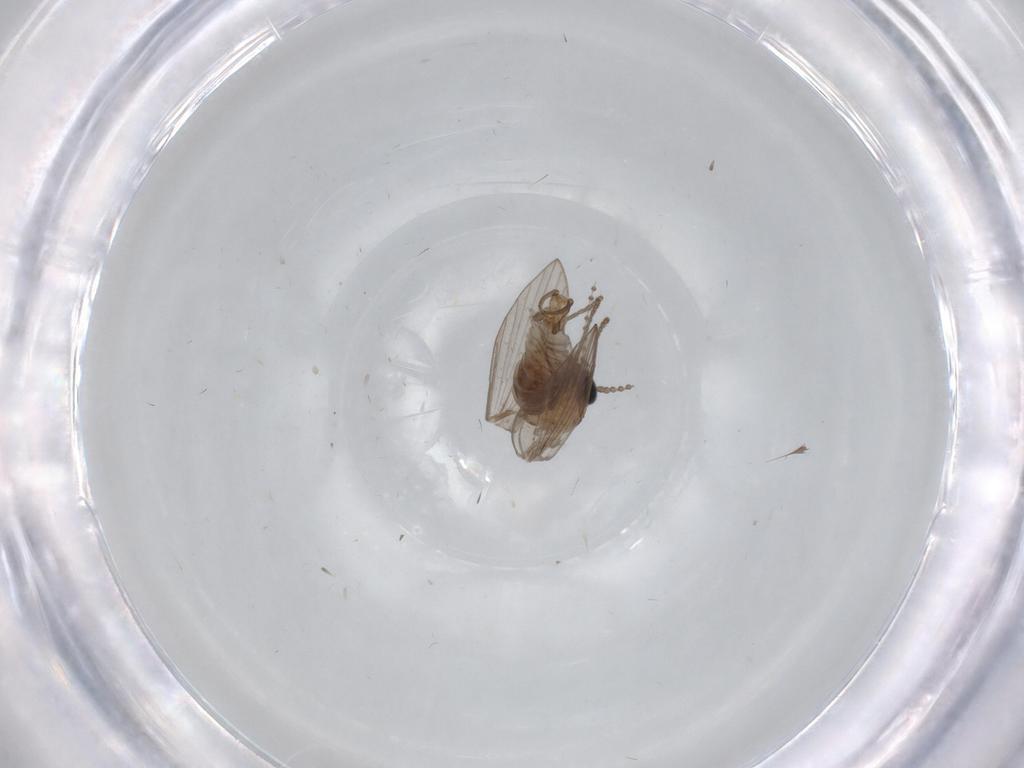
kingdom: Animalia
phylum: Arthropoda
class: Insecta
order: Diptera
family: Psychodidae
